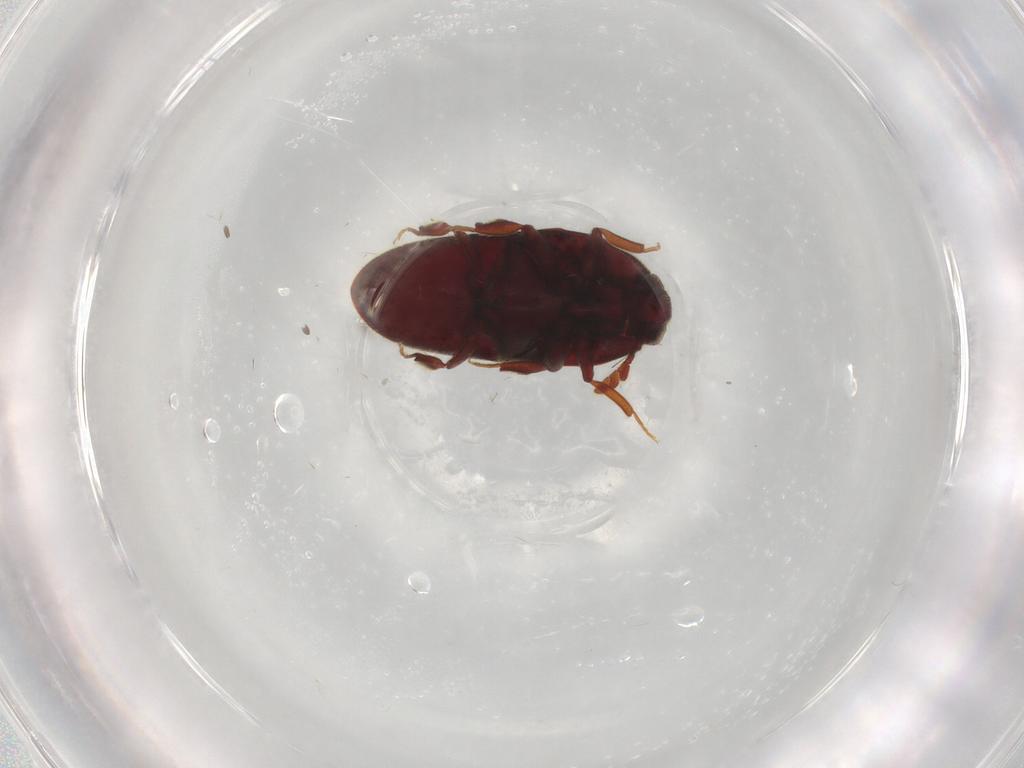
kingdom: Animalia
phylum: Arthropoda
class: Insecta
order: Coleoptera
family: Throscidae
